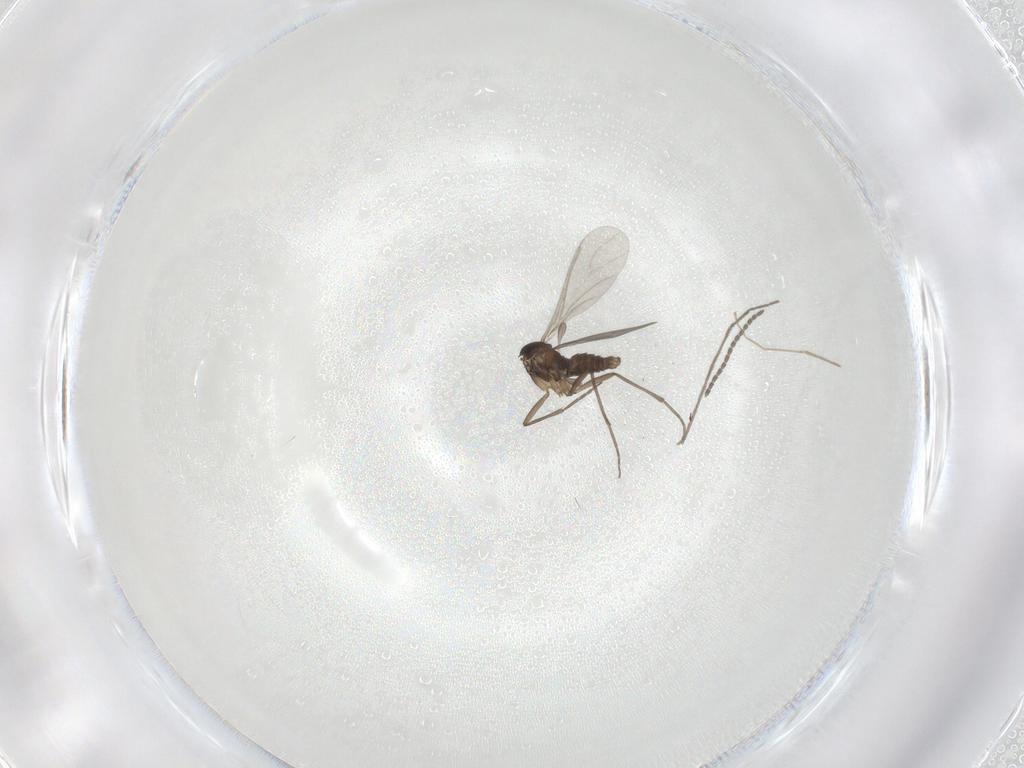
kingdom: Animalia
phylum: Arthropoda
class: Insecta
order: Diptera
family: Sciaridae
